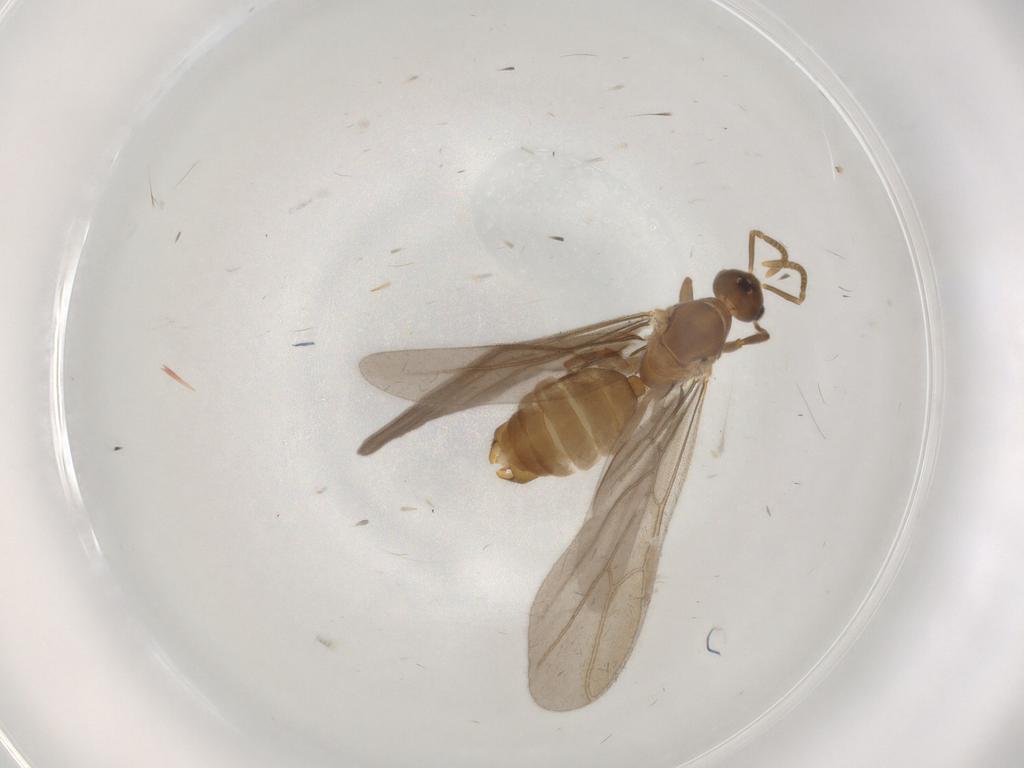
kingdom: Animalia
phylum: Arthropoda
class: Insecta
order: Hymenoptera
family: Formicidae
